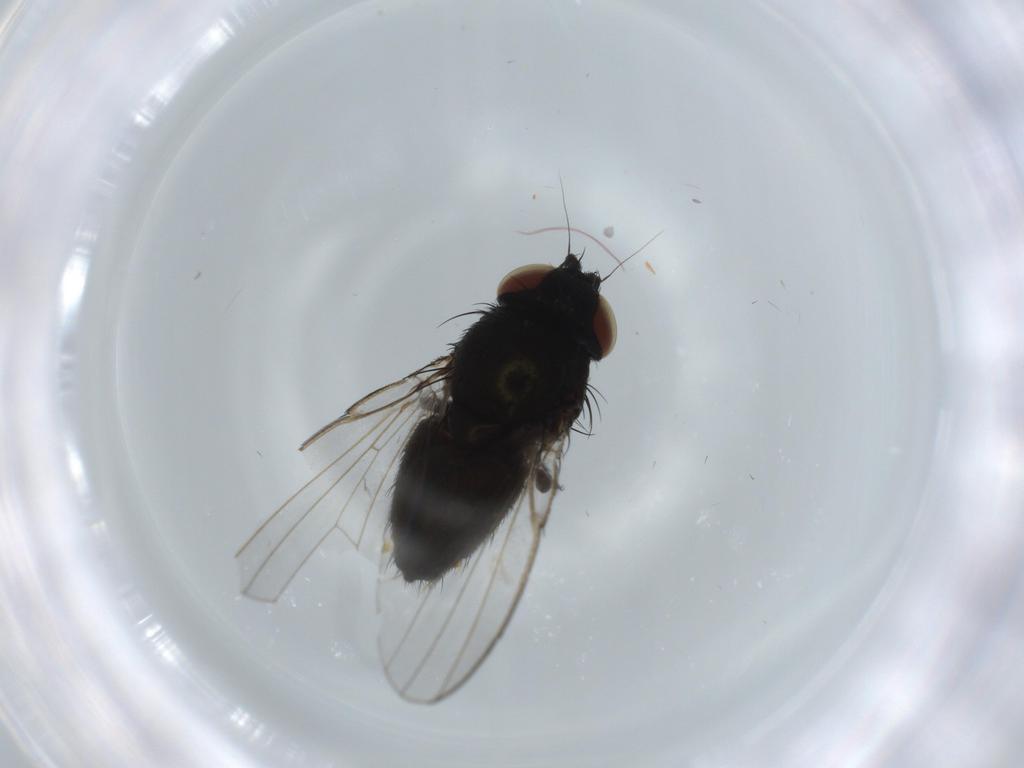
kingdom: Animalia
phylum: Arthropoda
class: Insecta
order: Diptera
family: Milichiidae
